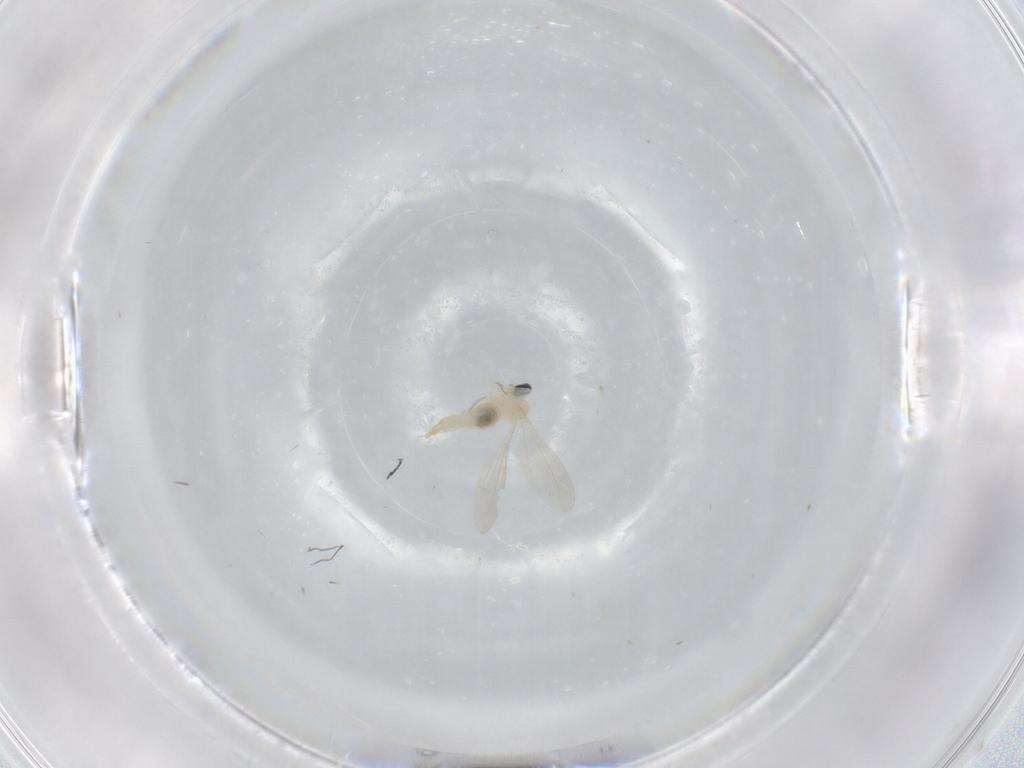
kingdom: Animalia
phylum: Arthropoda
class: Insecta
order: Diptera
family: Cecidomyiidae
